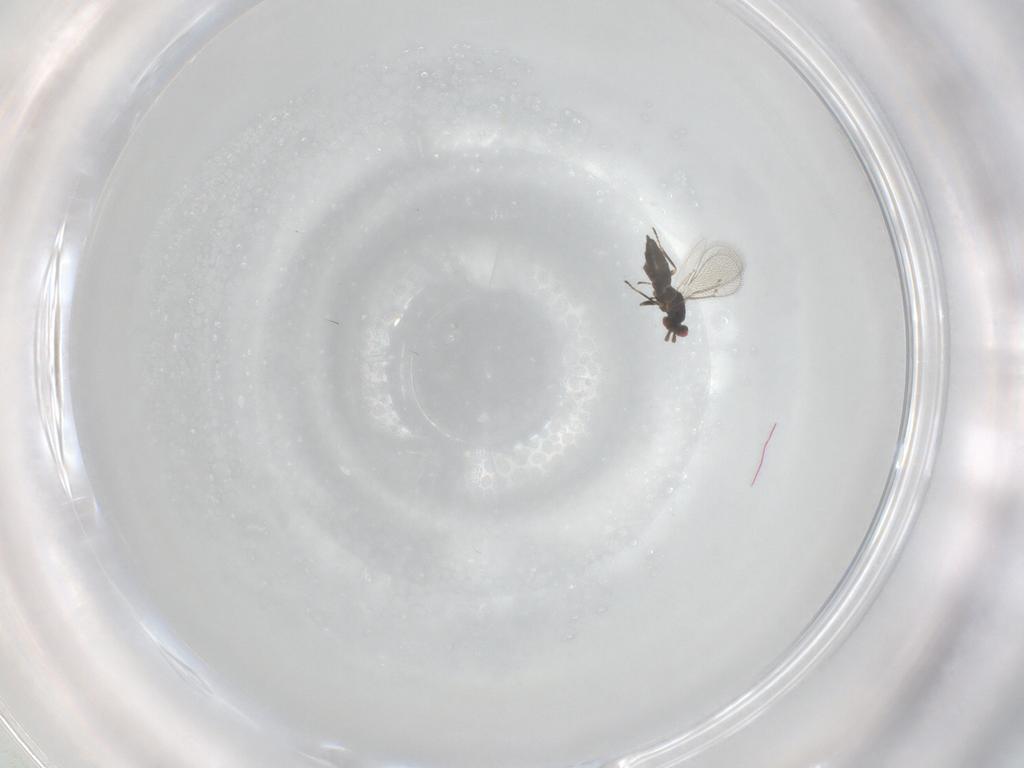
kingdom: Animalia
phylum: Arthropoda
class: Insecta
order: Hymenoptera
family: Eulophidae
